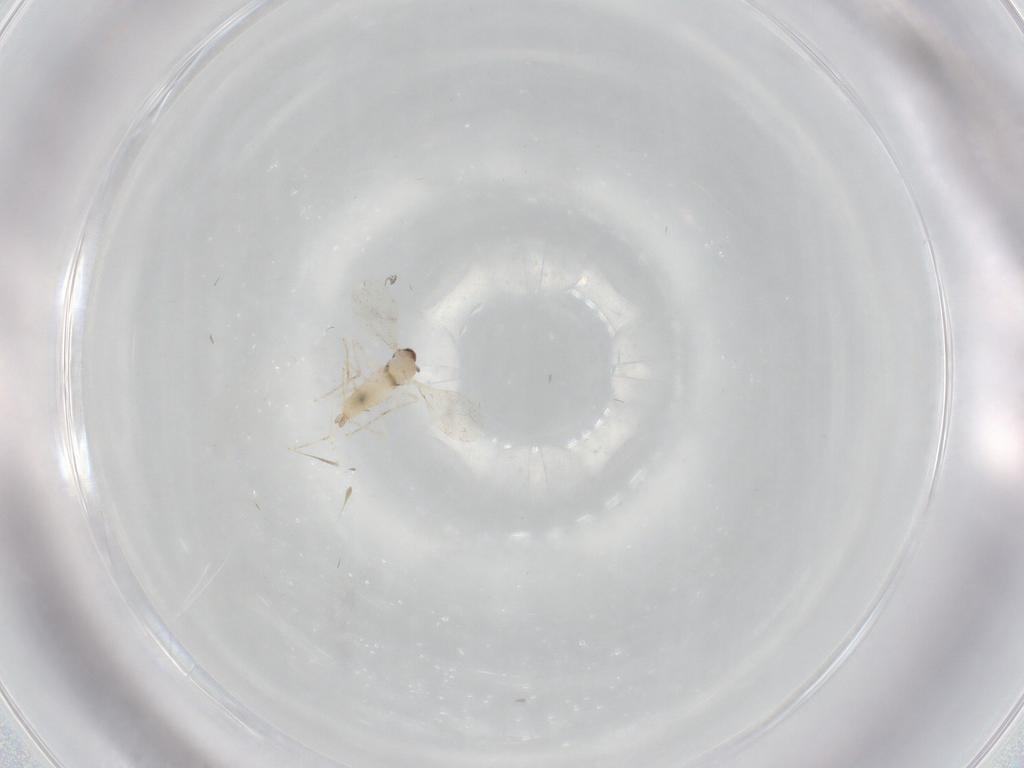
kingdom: Animalia
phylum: Arthropoda
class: Insecta
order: Diptera
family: Cecidomyiidae
